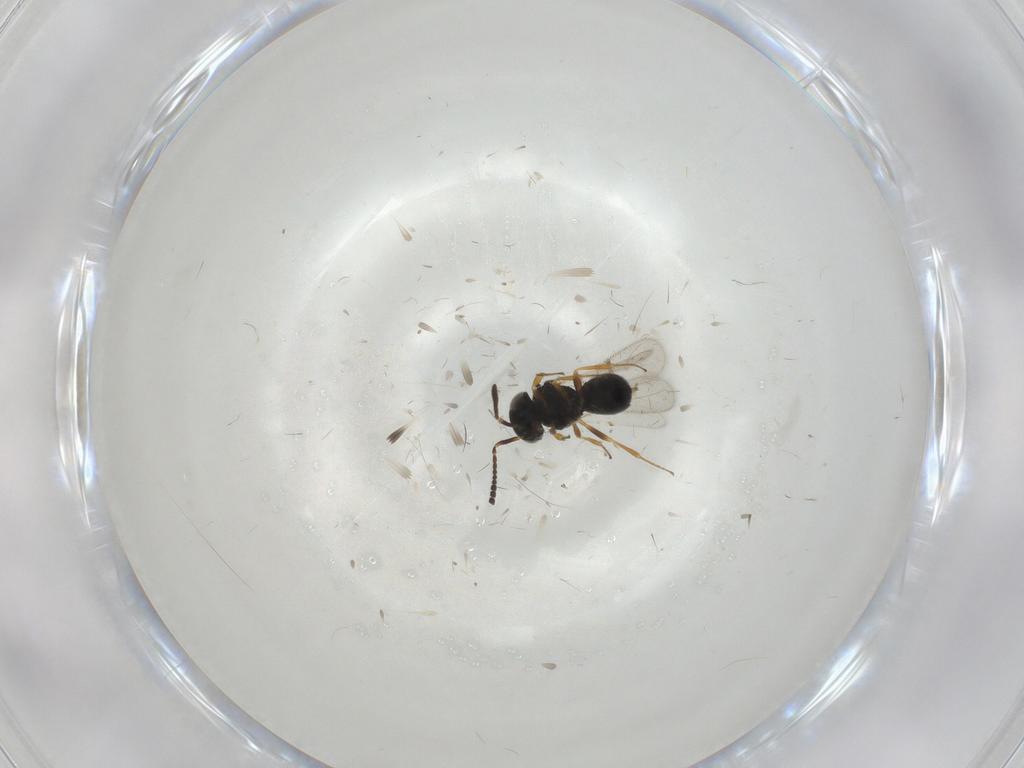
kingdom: Animalia
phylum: Arthropoda
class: Insecta
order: Hymenoptera
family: Scelionidae
